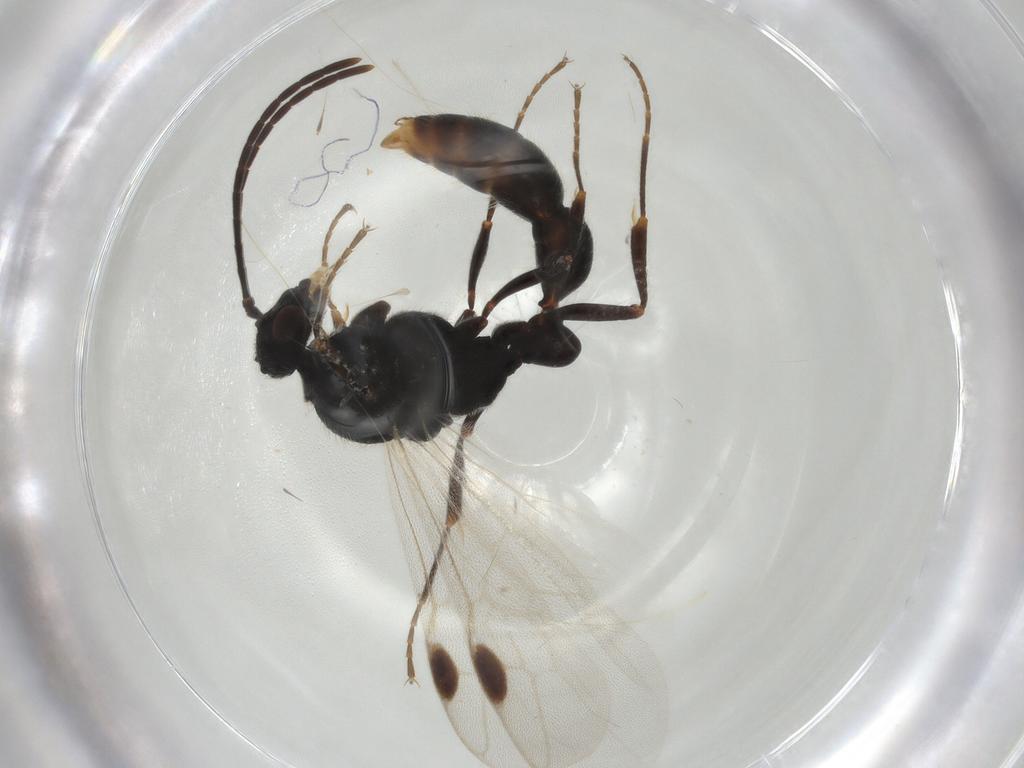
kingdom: Animalia
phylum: Arthropoda
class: Insecta
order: Hymenoptera
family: Formicidae
